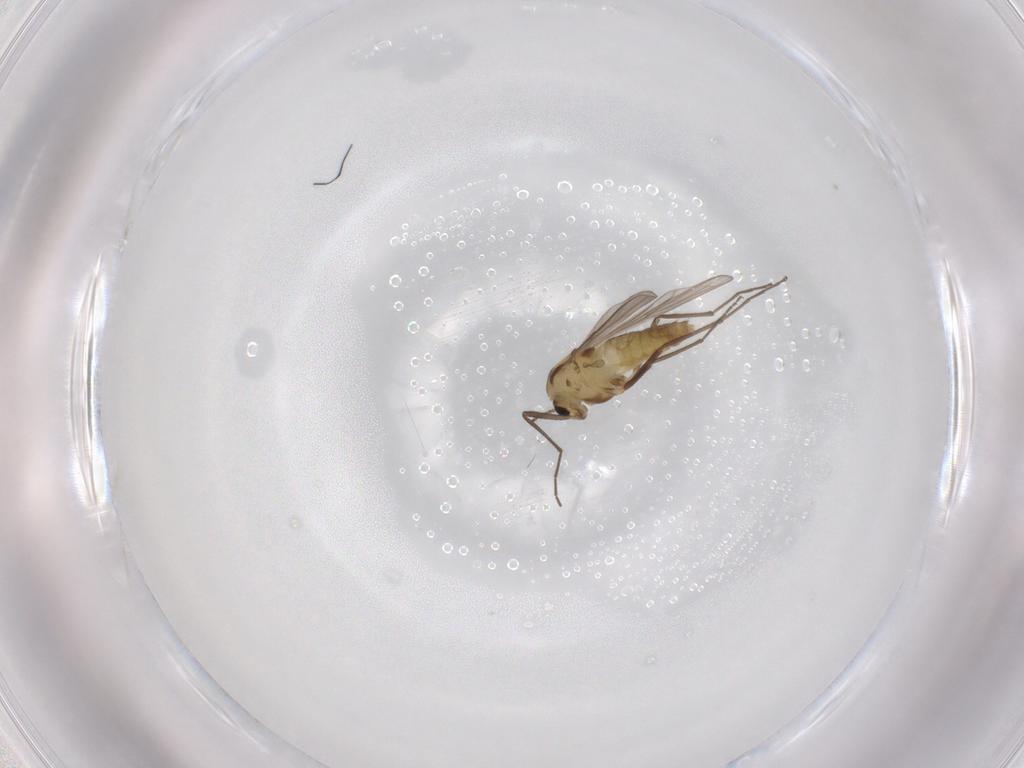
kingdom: Animalia
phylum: Arthropoda
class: Insecta
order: Diptera
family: Chironomidae
